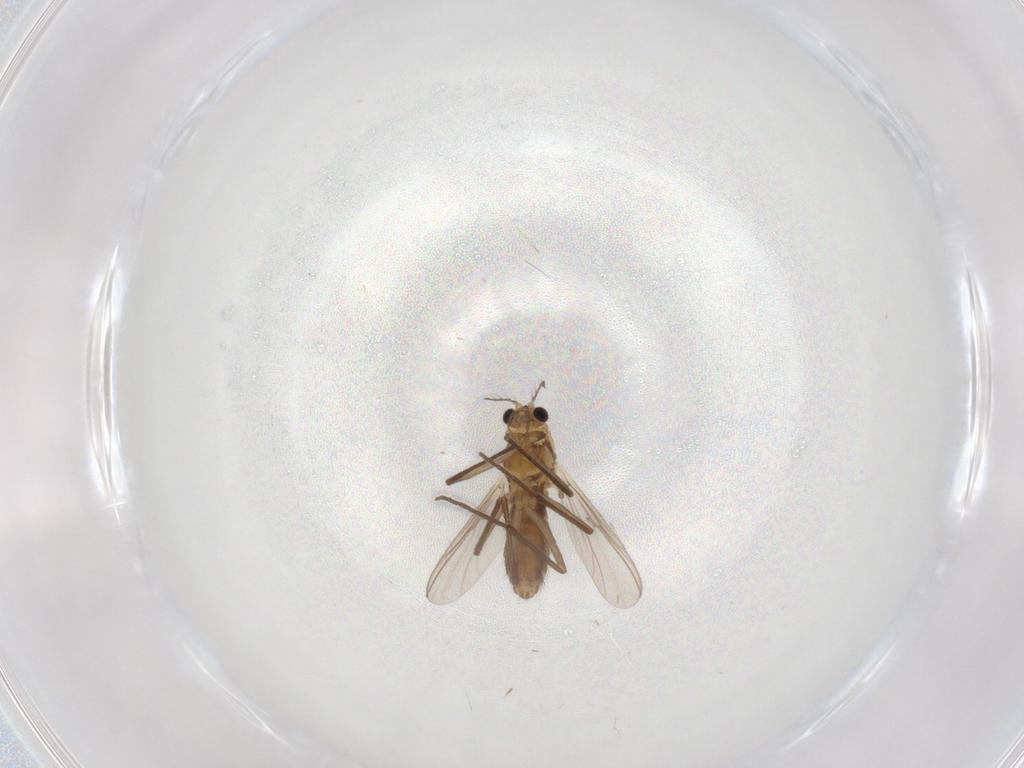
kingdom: Animalia
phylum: Arthropoda
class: Insecta
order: Diptera
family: Chironomidae
